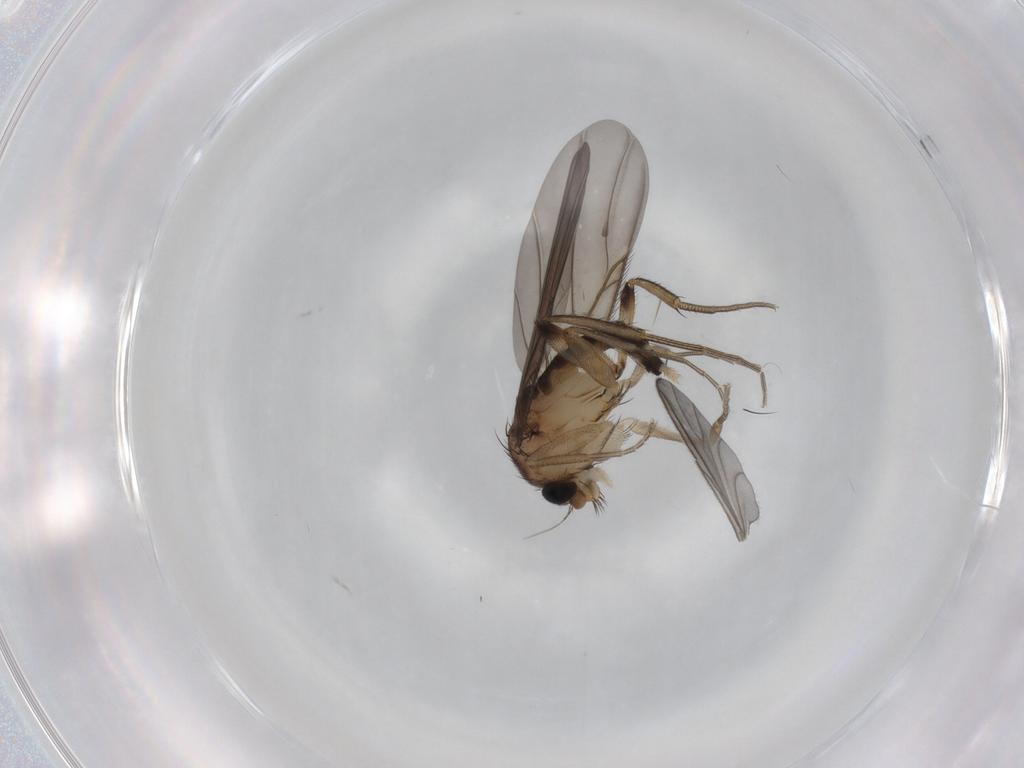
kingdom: Animalia
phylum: Arthropoda
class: Insecta
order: Diptera
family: Phoridae
